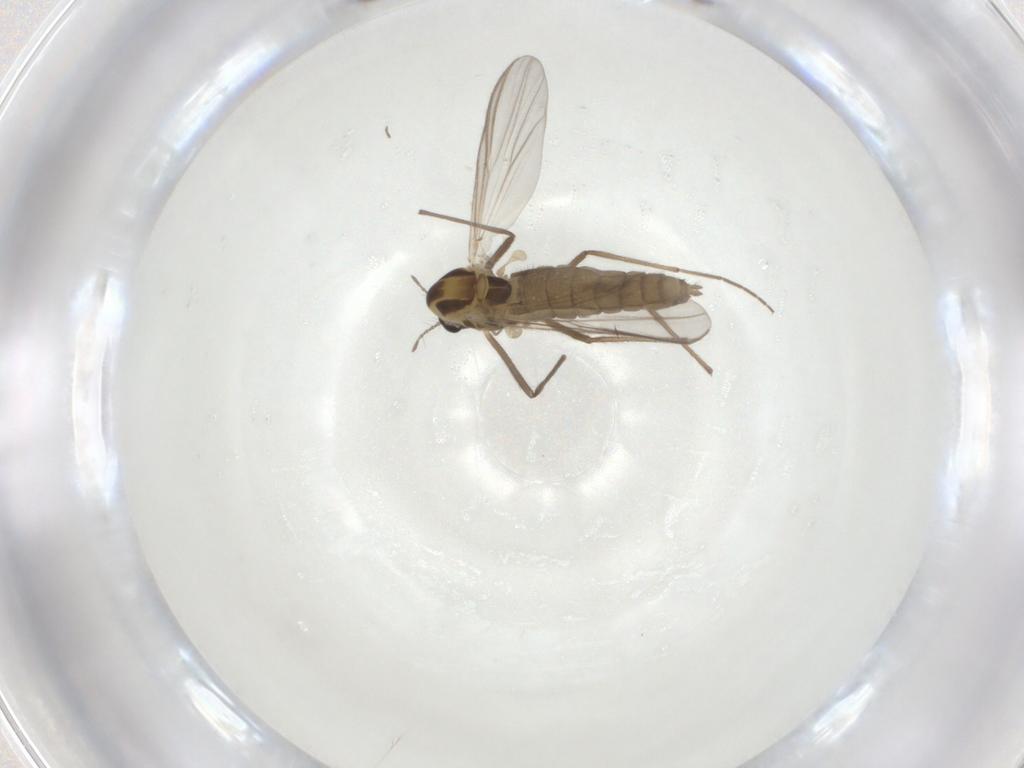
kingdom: Animalia
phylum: Arthropoda
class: Insecta
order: Diptera
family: Chironomidae
